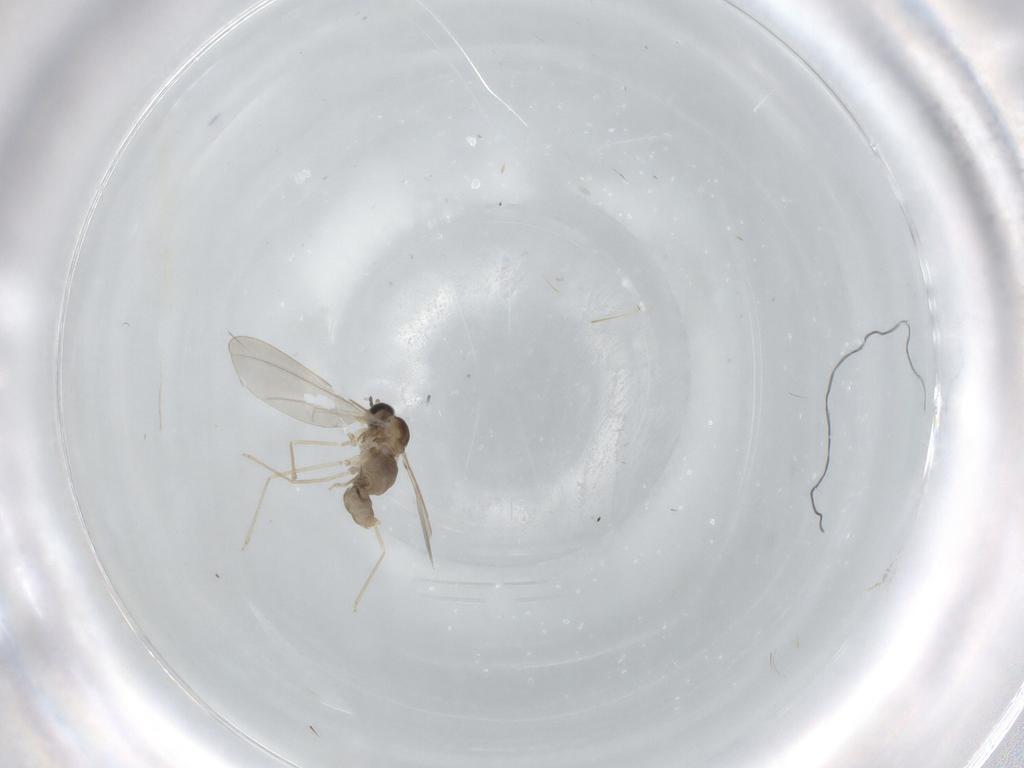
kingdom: Animalia
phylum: Arthropoda
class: Insecta
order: Diptera
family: Cecidomyiidae
